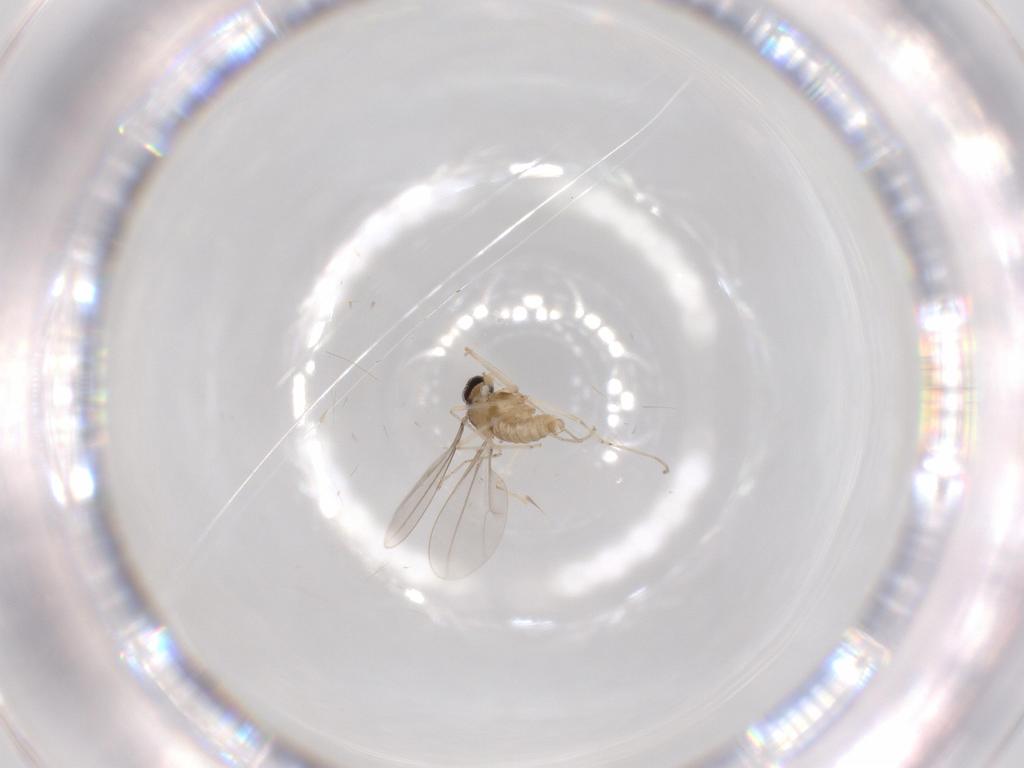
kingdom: Animalia
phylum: Arthropoda
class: Insecta
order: Diptera
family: Cecidomyiidae
